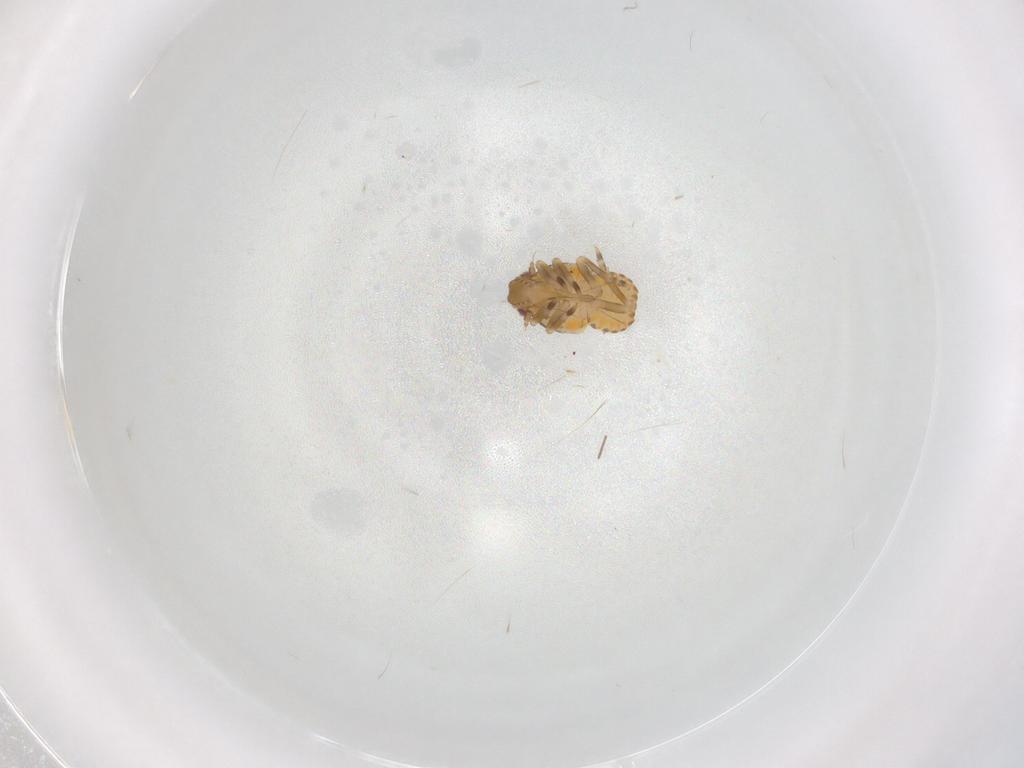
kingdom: Animalia
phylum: Arthropoda
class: Insecta
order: Hemiptera
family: Flatidae
